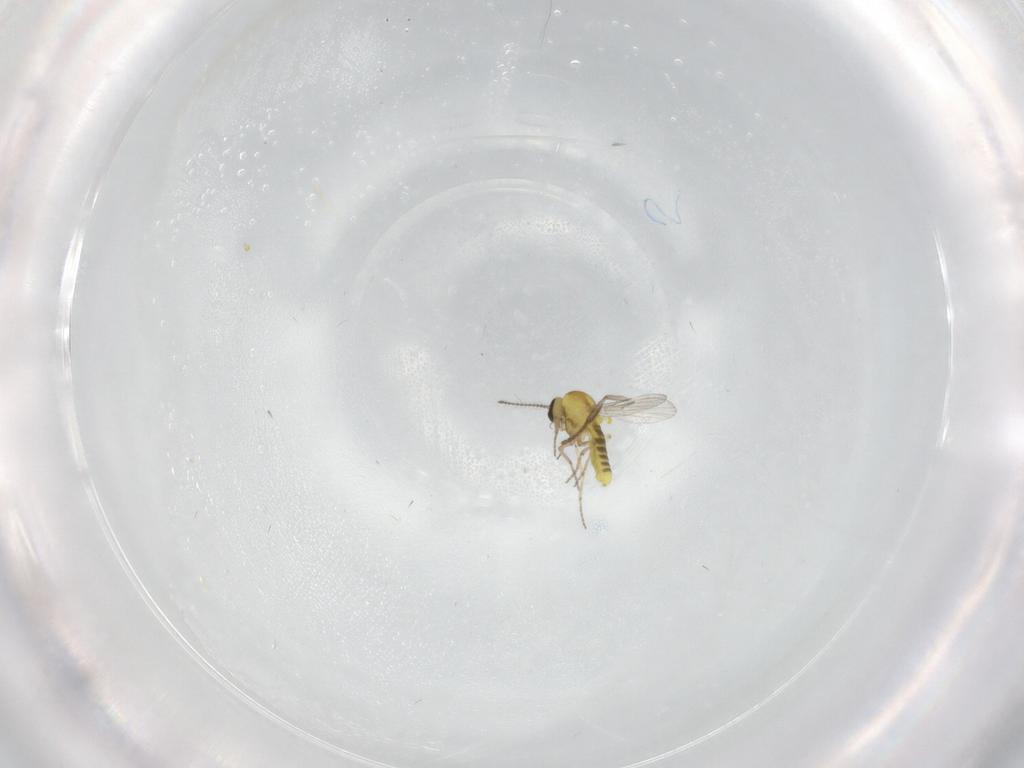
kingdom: Animalia
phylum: Arthropoda
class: Insecta
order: Diptera
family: Sciaridae
